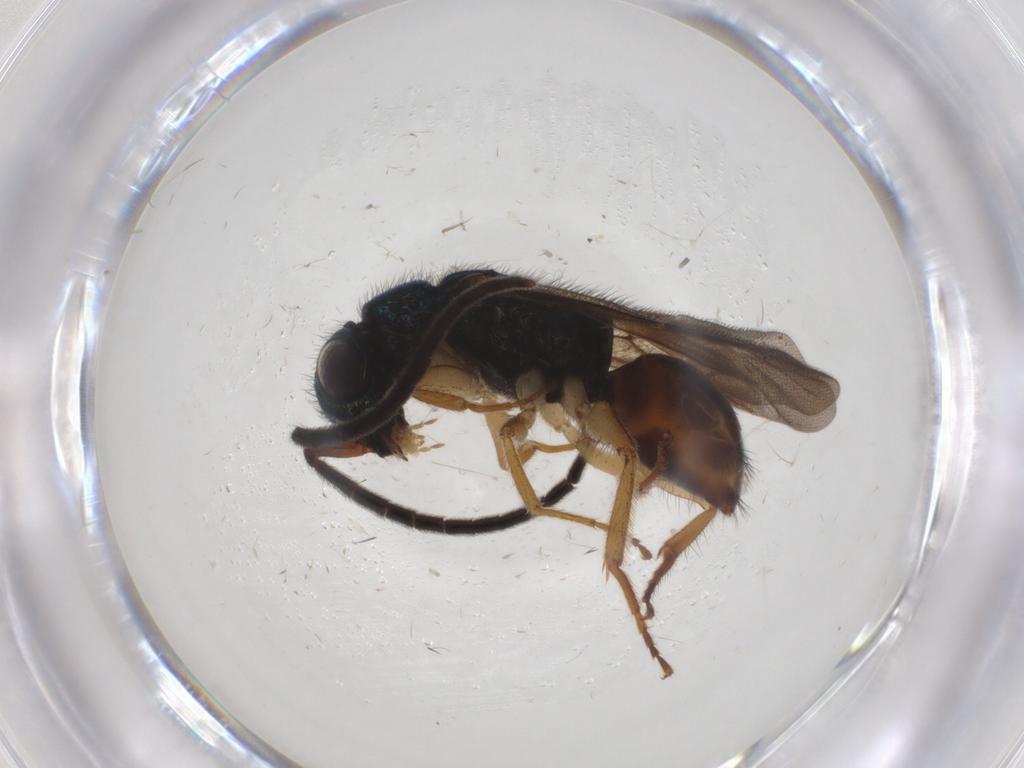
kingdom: Animalia
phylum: Arthropoda
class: Insecta
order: Hymenoptera
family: Chrysididae
